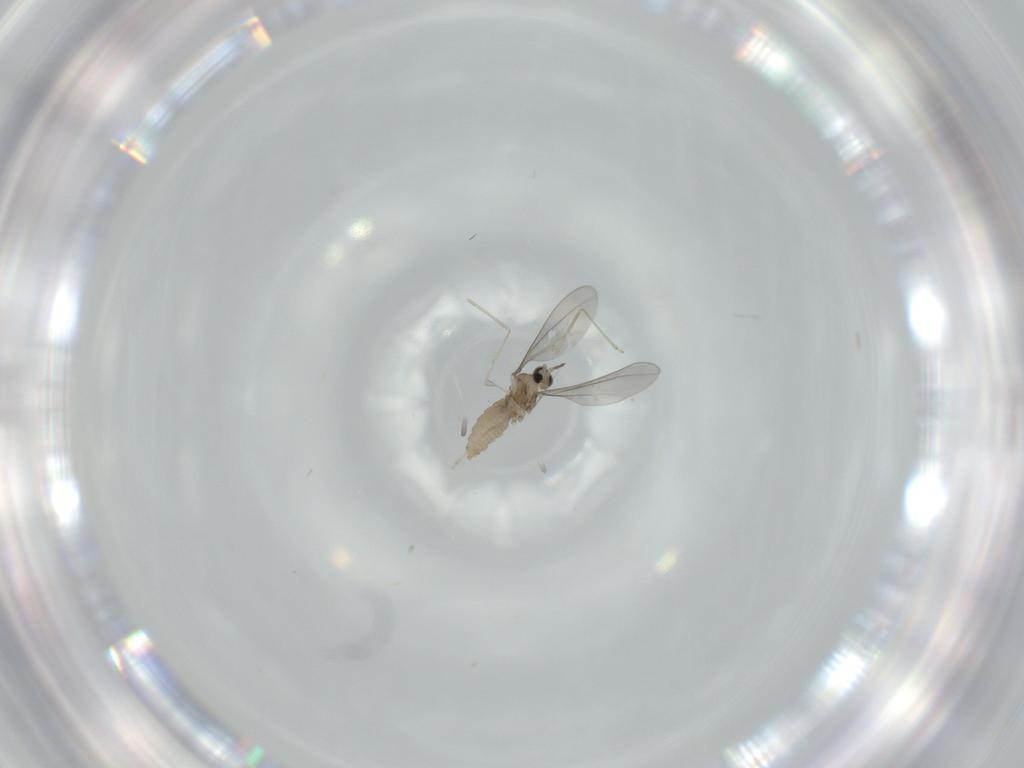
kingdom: Animalia
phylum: Arthropoda
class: Insecta
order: Diptera
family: Cecidomyiidae
